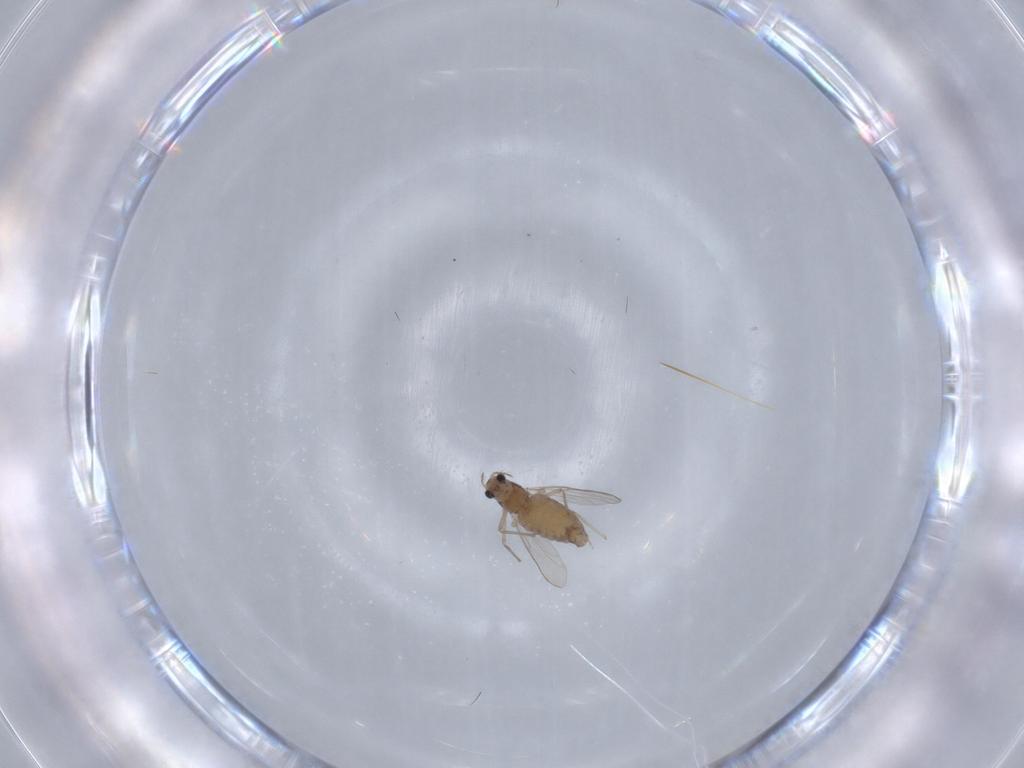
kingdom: Animalia
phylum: Arthropoda
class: Insecta
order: Diptera
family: Chironomidae
